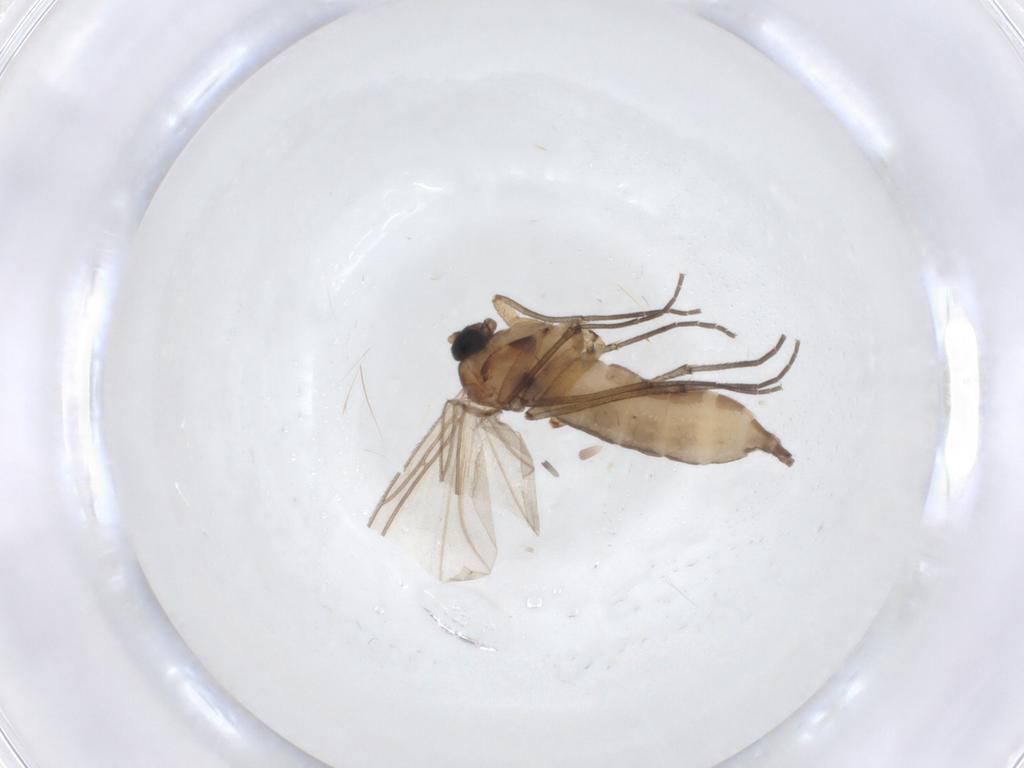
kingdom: Animalia
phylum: Arthropoda
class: Insecta
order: Diptera
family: Sciaridae
